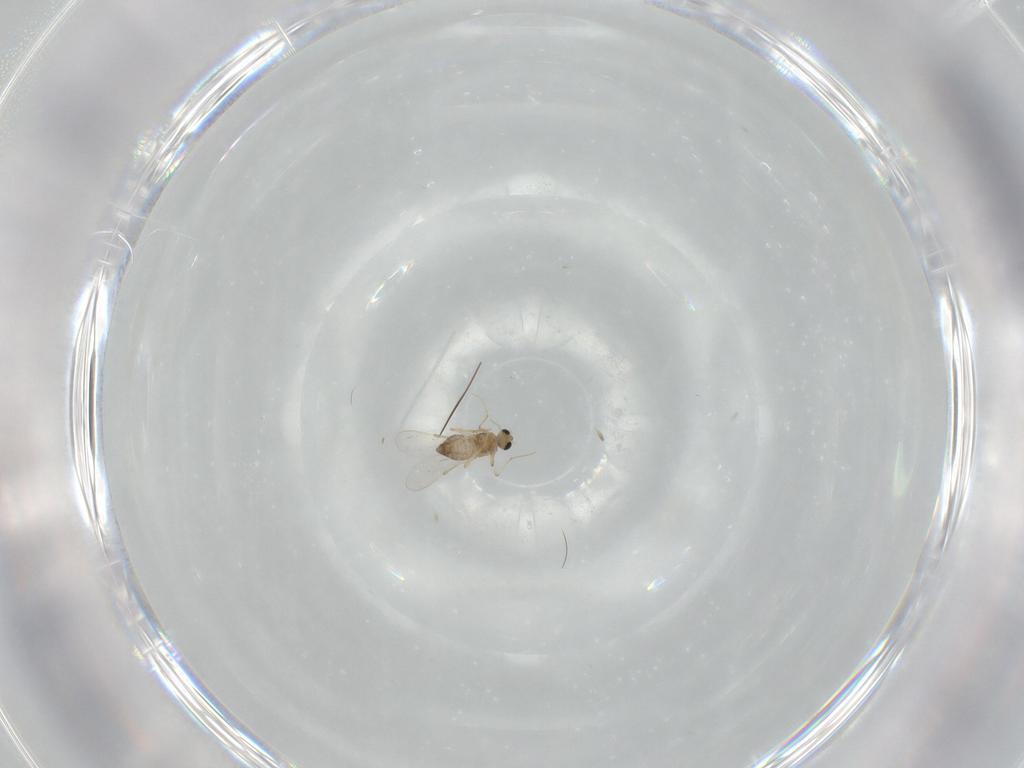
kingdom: Animalia
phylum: Arthropoda
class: Insecta
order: Diptera
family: Chironomidae
